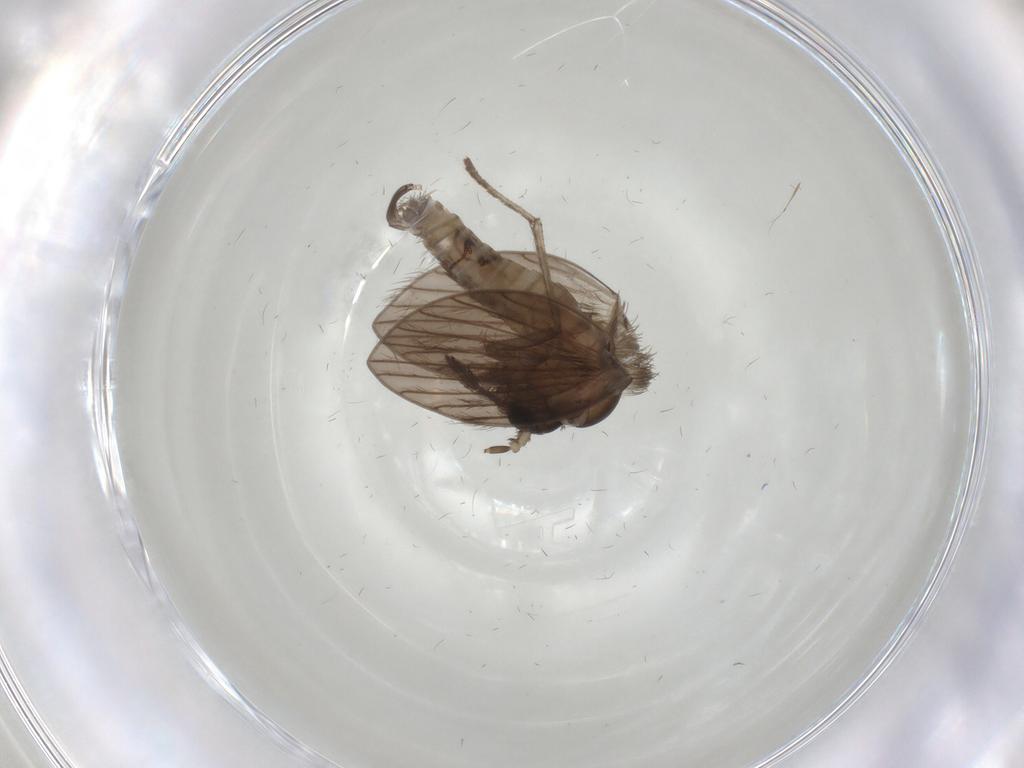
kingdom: Animalia
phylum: Arthropoda
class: Insecta
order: Diptera
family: Psychodidae
